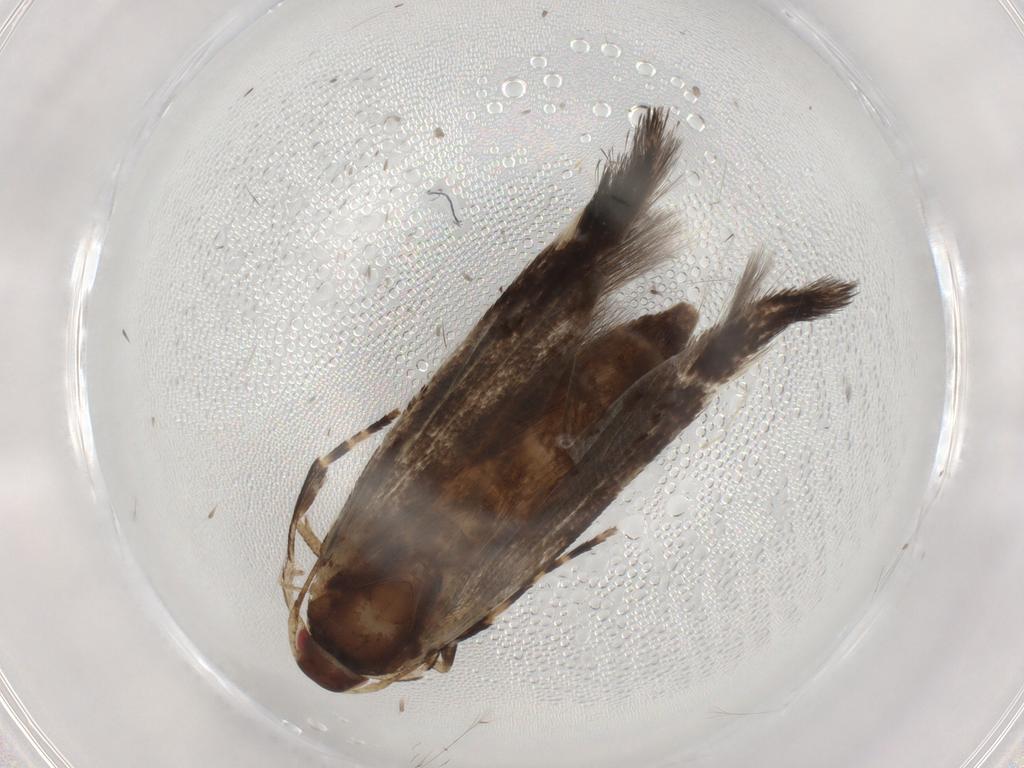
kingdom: Animalia
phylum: Arthropoda
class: Insecta
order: Lepidoptera
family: Cosmopterigidae
